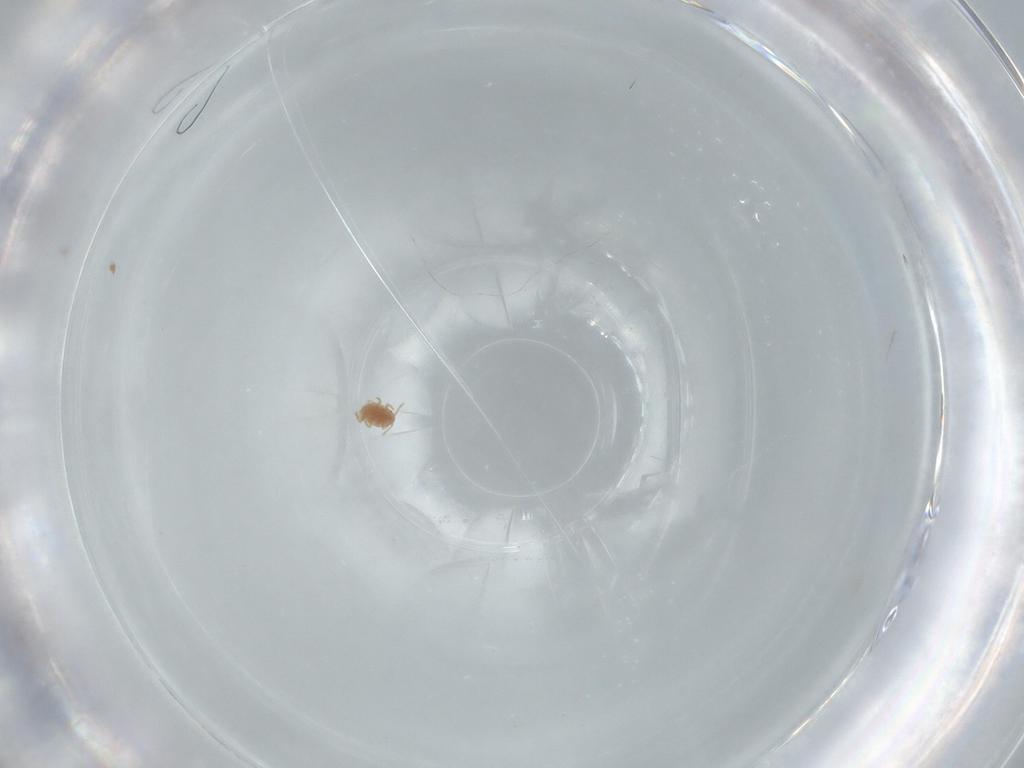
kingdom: Animalia
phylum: Arthropoda
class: Insecta
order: Hemiptera
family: Pseudococcidae
